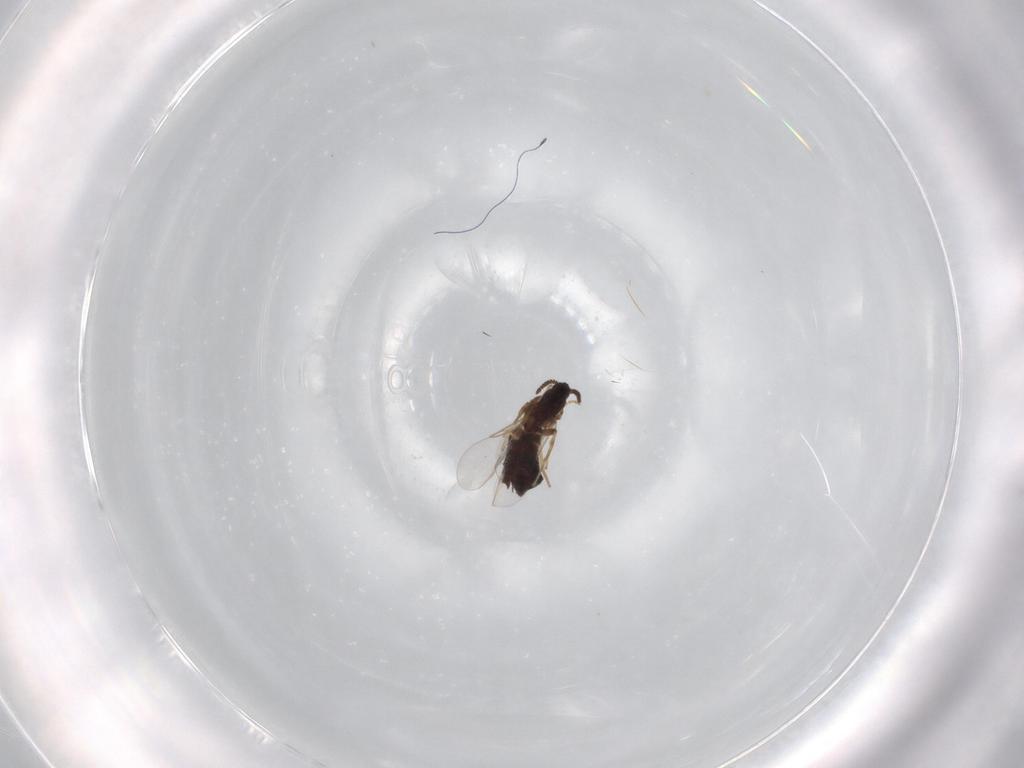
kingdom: Animalia
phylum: Arthropoda
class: Insecta
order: Diptera
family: Scatopsidae
